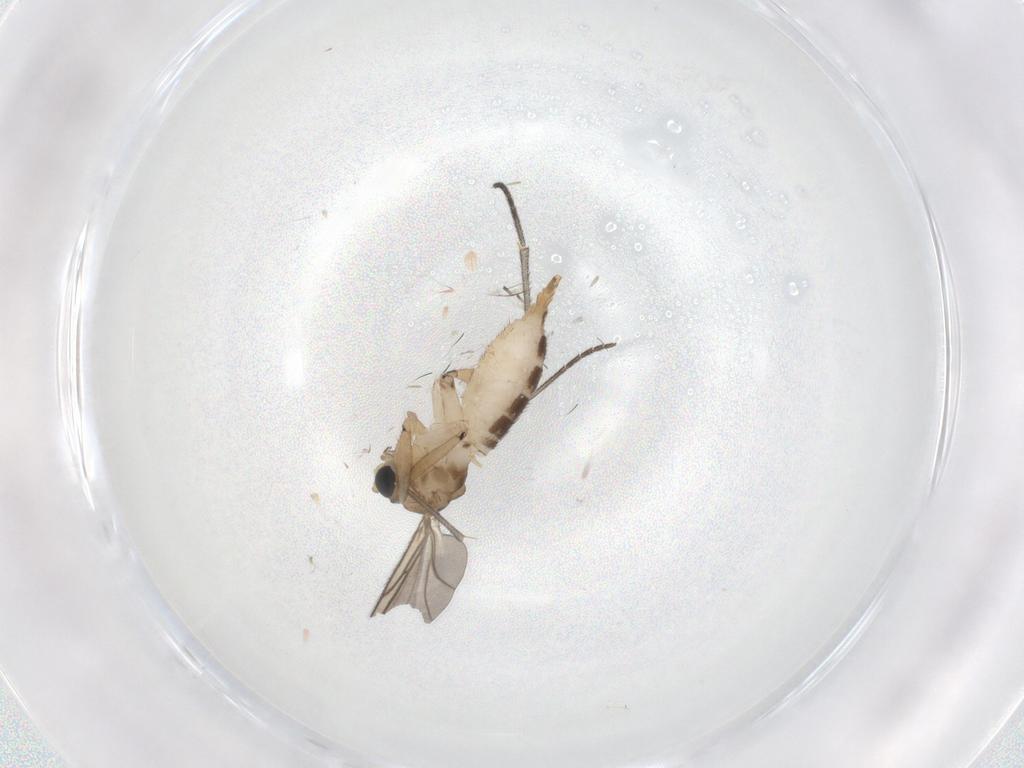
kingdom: Animalia
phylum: Arthropoda
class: Insecta
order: Diptera
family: Sciaridae
